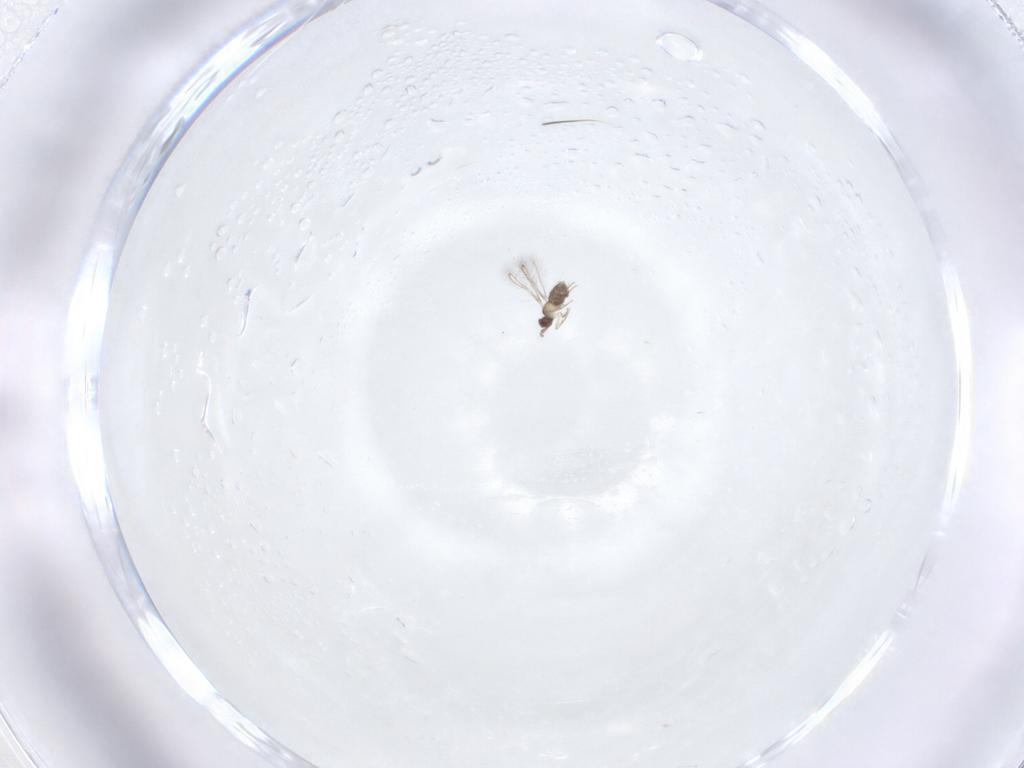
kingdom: Animalia
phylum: Arthropoda
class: Insecta
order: Hymenoptera
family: Mymaridae
